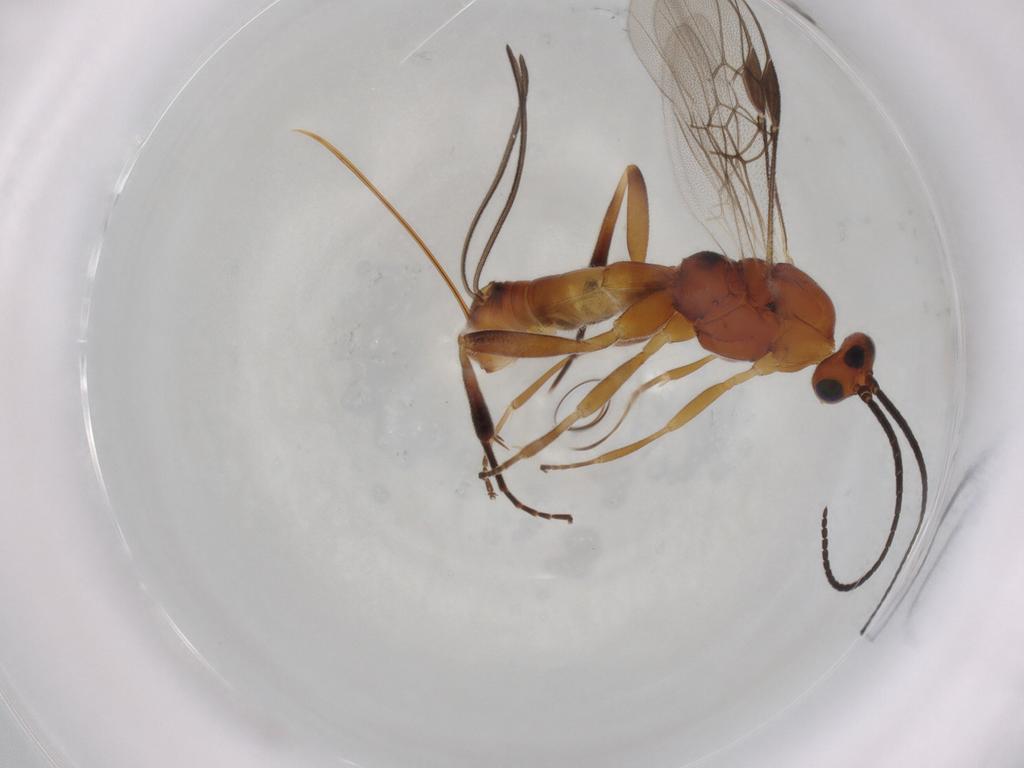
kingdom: Animalia
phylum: Arthropoda
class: Insecta
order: Hymenoptera
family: Braconidae
